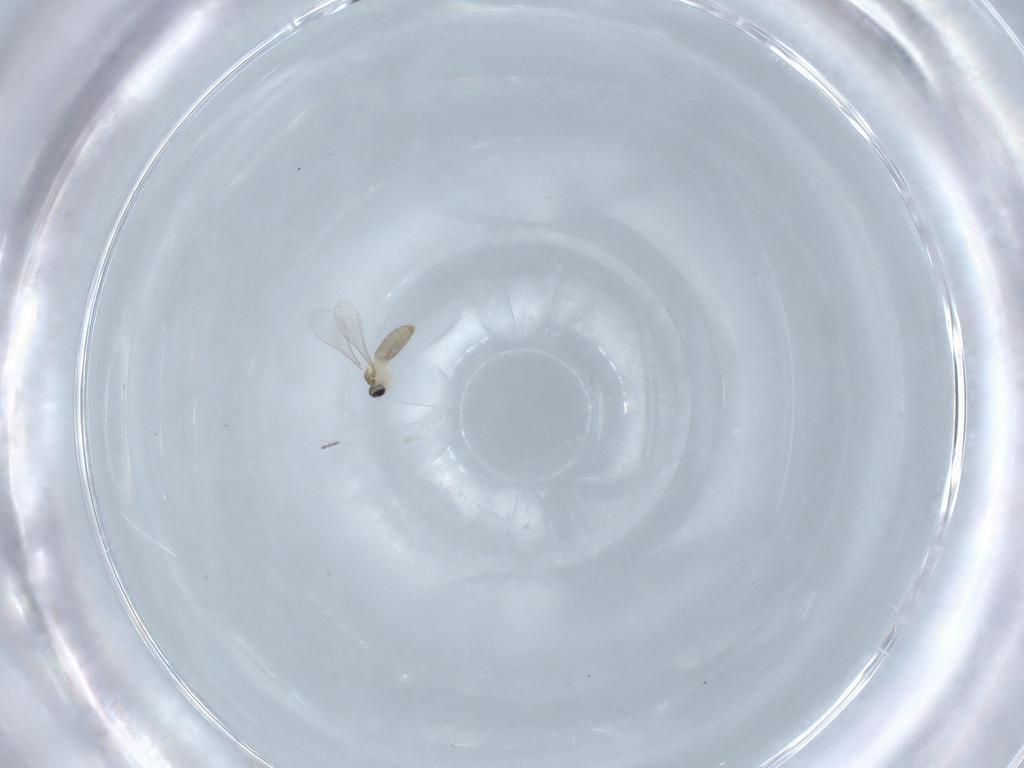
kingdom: Animalia
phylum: Arthropoda
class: Insecta
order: Diptera
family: Cecidomyiidae
